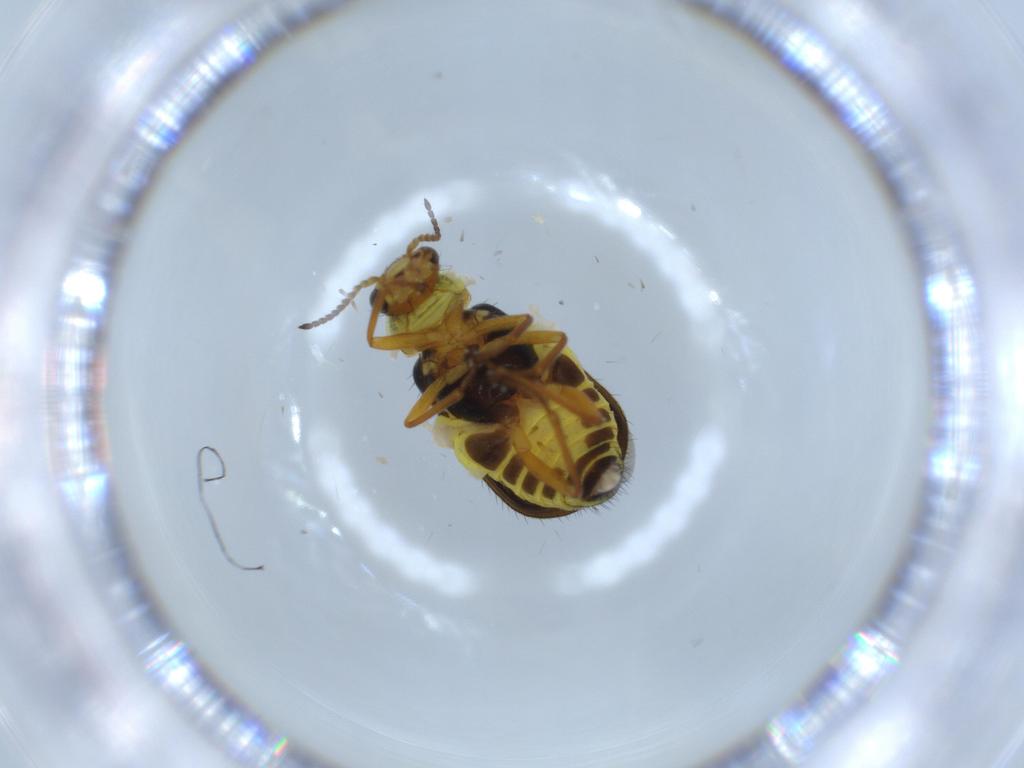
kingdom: Animalia
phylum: Arthropoda
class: Insecta
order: Coleoptera
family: Melyridae
